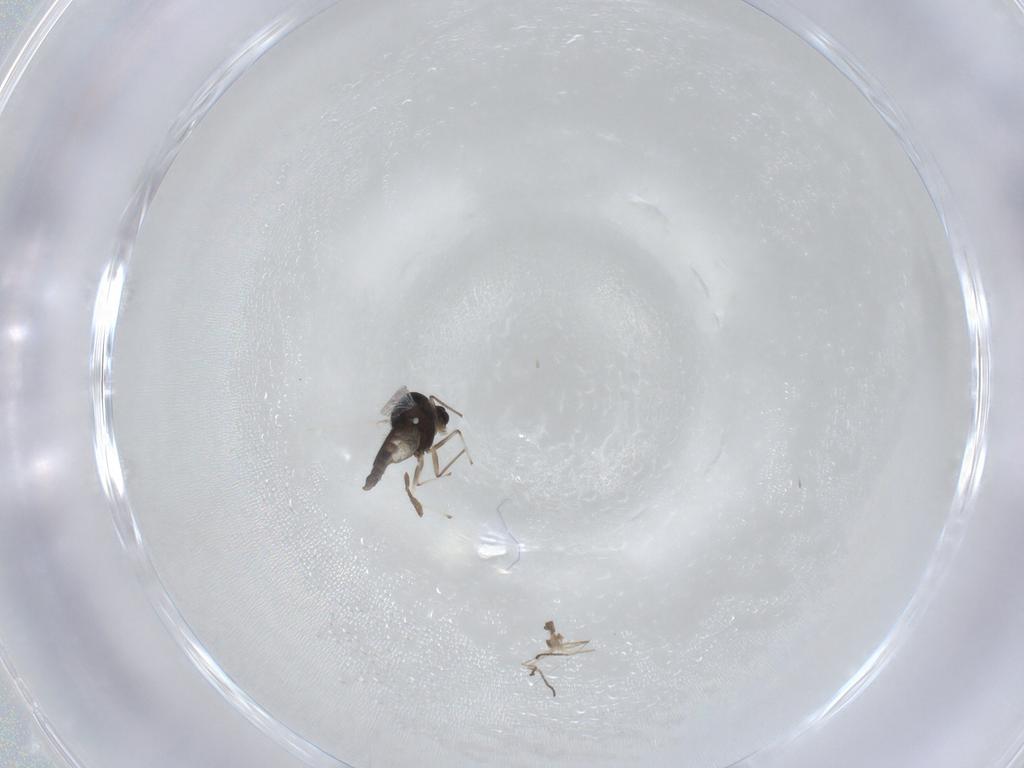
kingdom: Animalia
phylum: Arthropoda
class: Insecta
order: Diptera
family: Chironomidae
